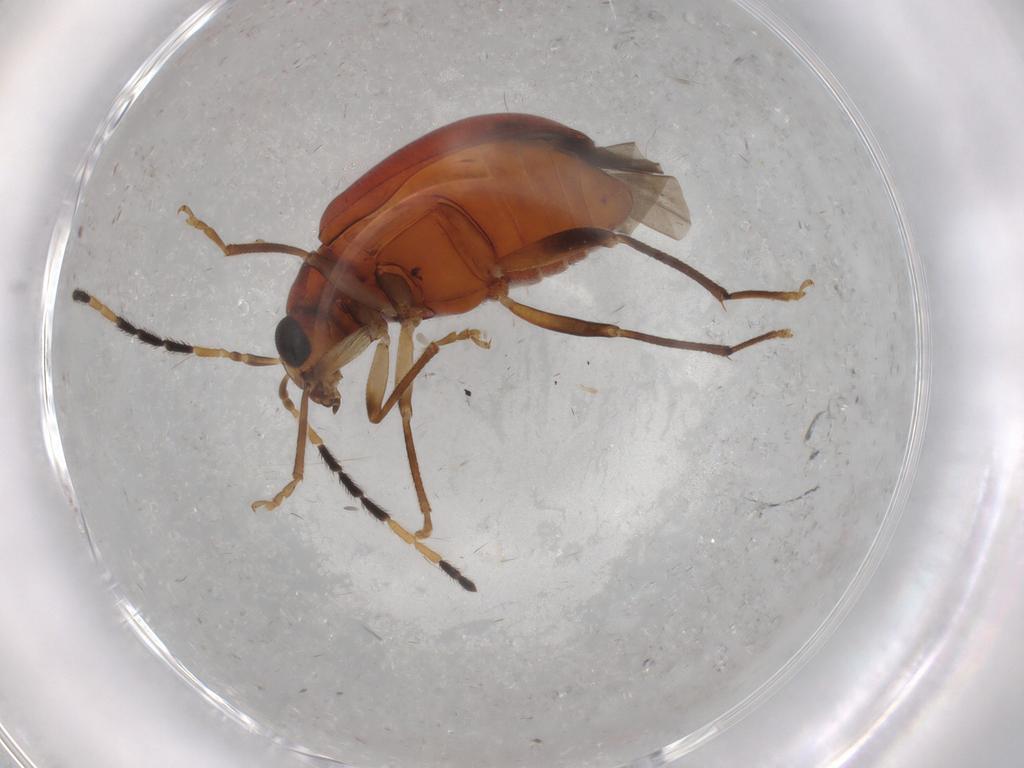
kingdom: Animalia
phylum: Arthropoda
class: Insecta
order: Coleoptera
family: Chrysomelidae
